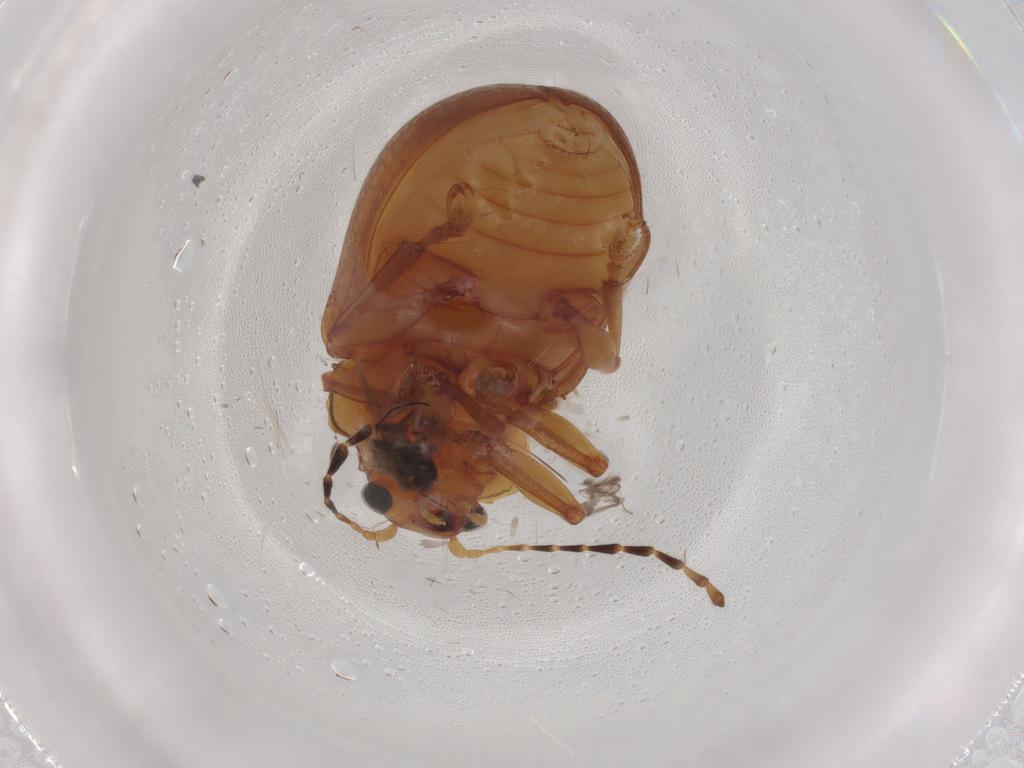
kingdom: Animalia
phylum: Arthropoda
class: Insecta
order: Coleoptera
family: Chrysomelidae
